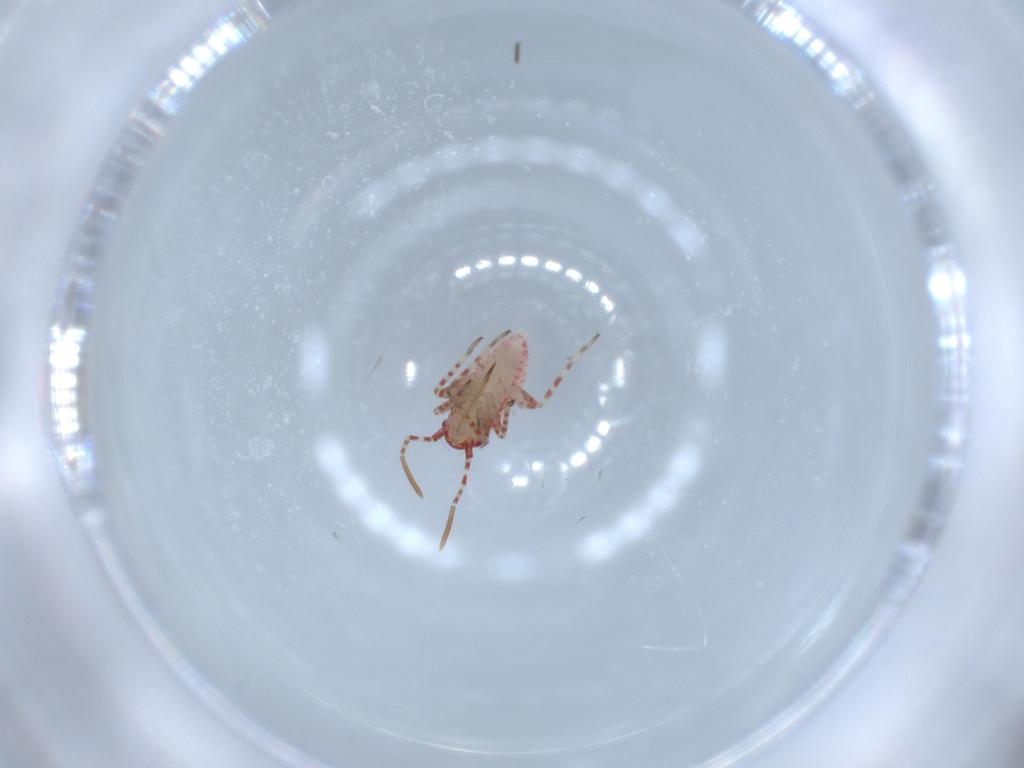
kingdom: Animalia
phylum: Arthropoda
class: Insecta
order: Hemiptera
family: Miridae
